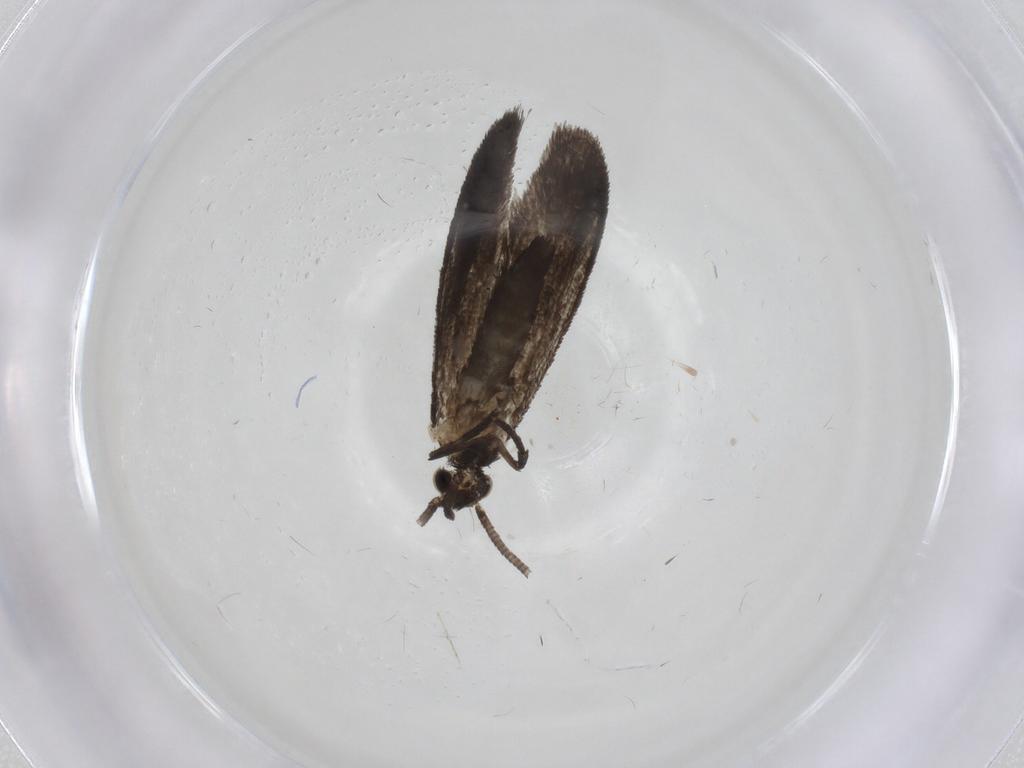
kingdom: Animalia
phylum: Arthropoda
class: Insecta
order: Lepidoptera
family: Nymphalidae
